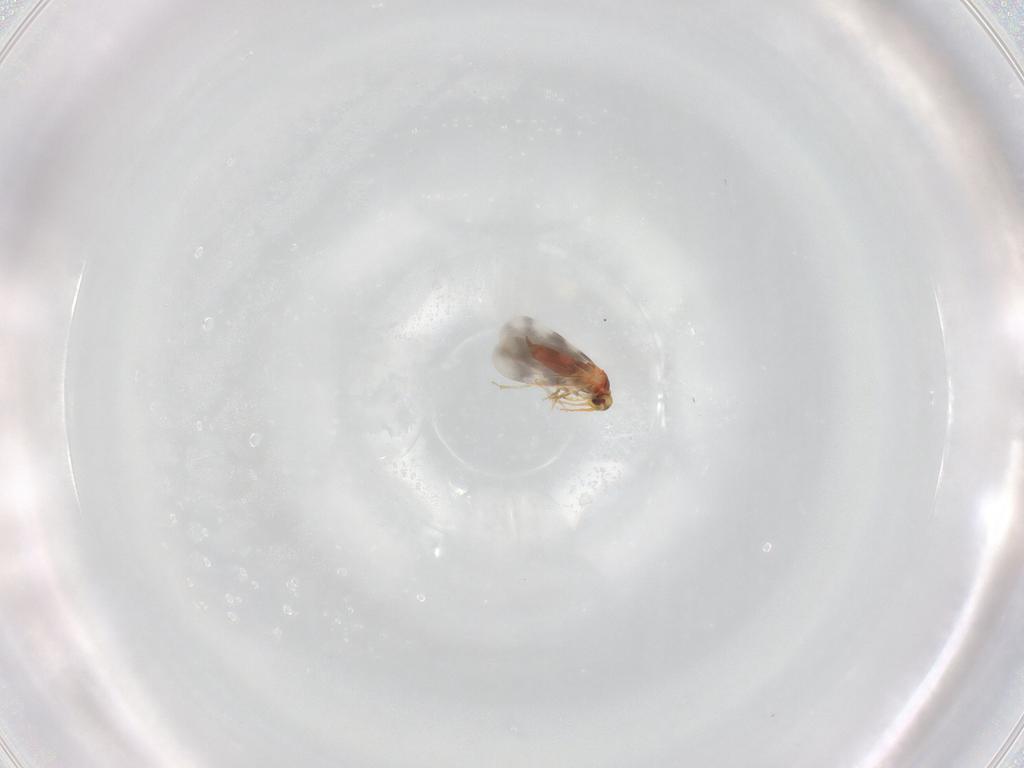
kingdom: Animalia
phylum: Arthropoda
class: Insecta
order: Hemiptera
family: Aleyrodidae
